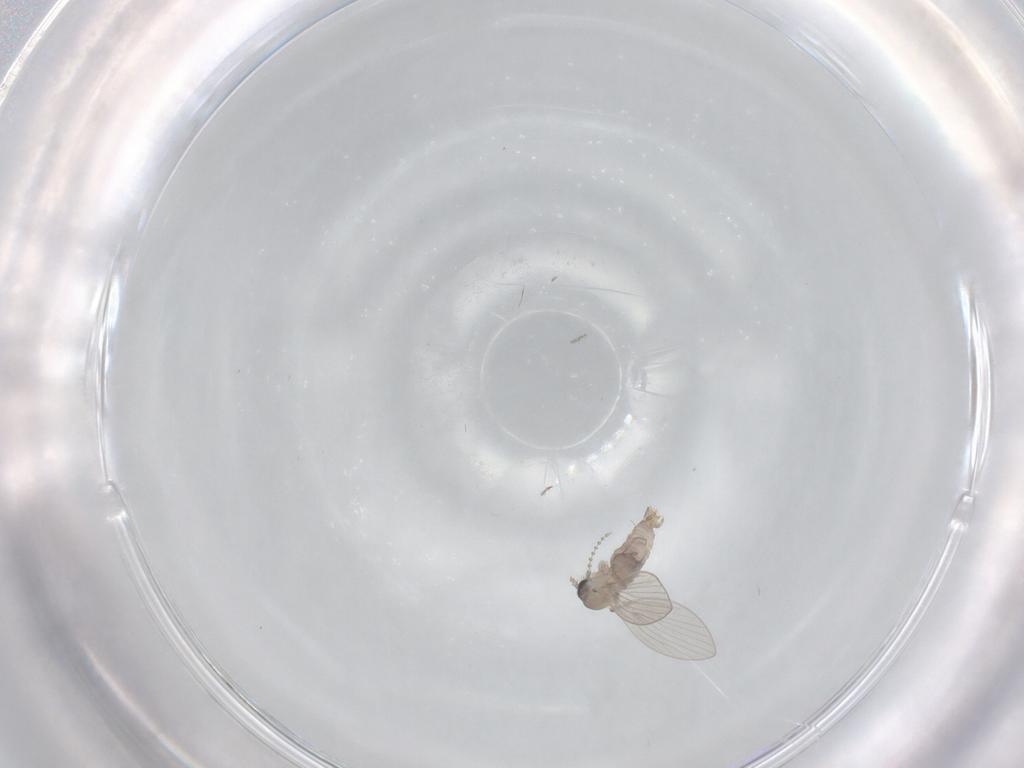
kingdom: Animalia
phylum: Arthropoda
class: Insecta
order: Diptera
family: Psychodidae
